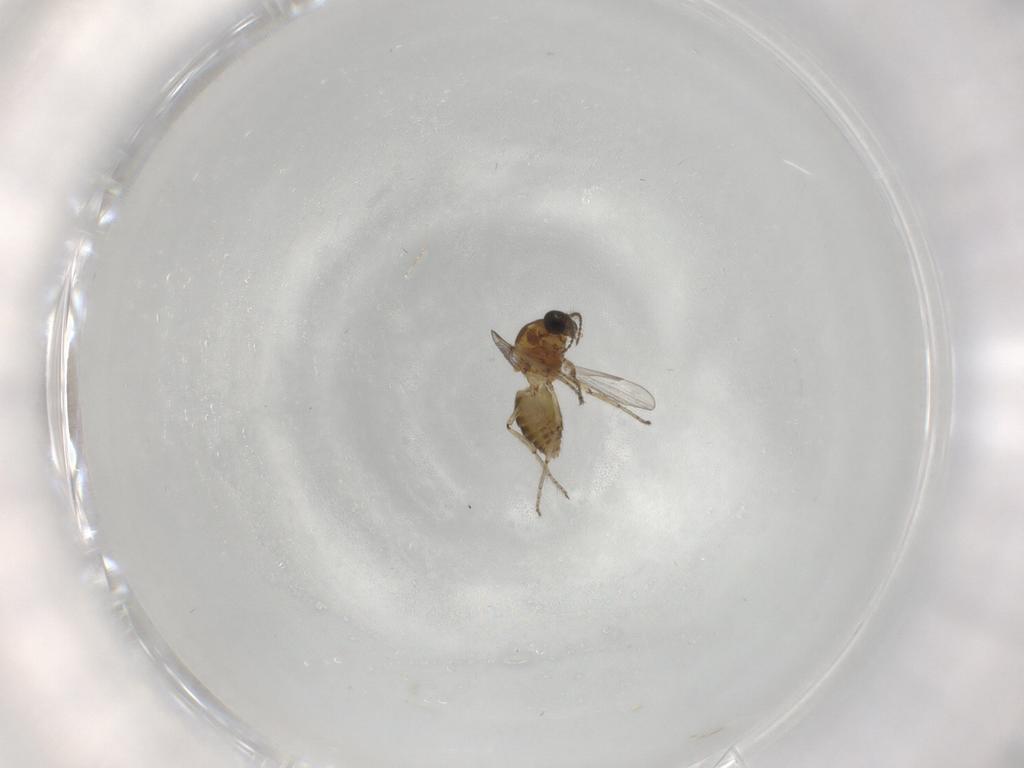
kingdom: Animalia
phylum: Arthropoda
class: Insecta
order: Diptera
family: Ceratopogonidae
